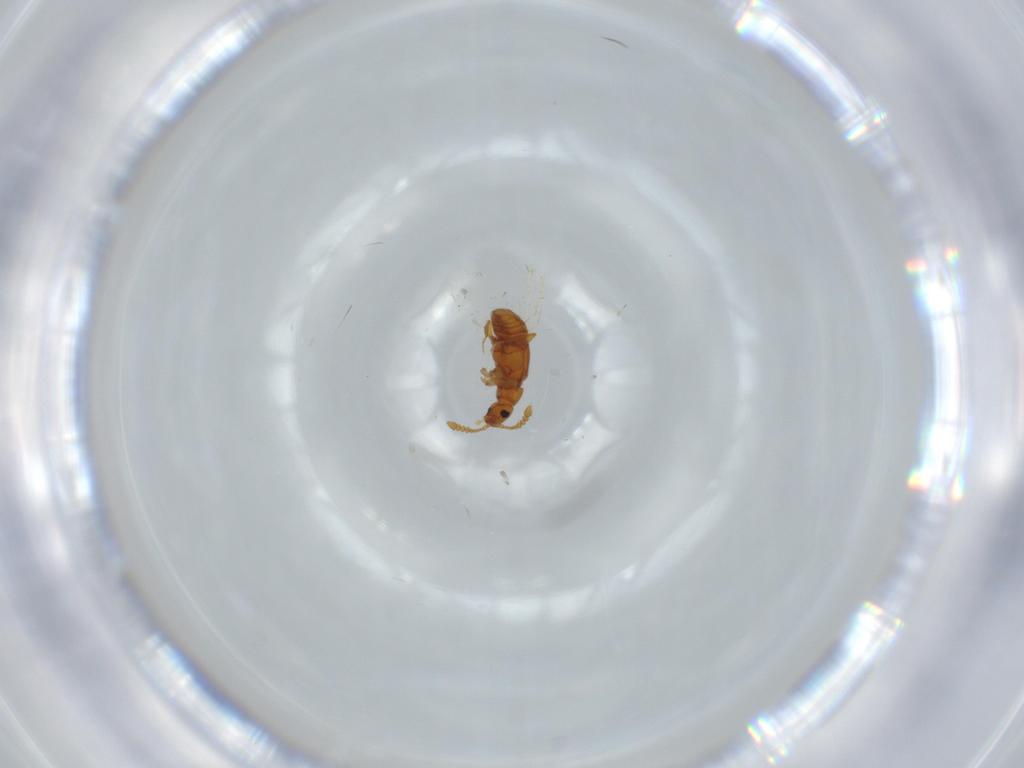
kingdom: Animalia
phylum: Arthropoda
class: Insecta
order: Coleoptera
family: Staphylinidae
